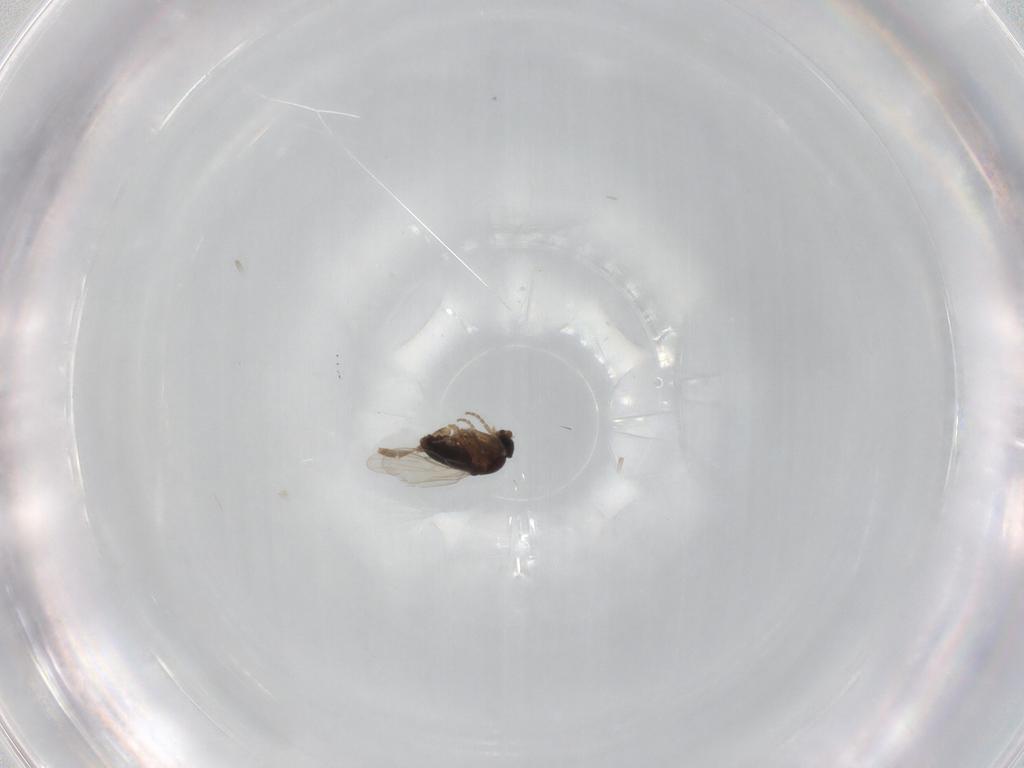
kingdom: Animalia
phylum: Arthropoda
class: Insecta
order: Diptera
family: Phoridae
